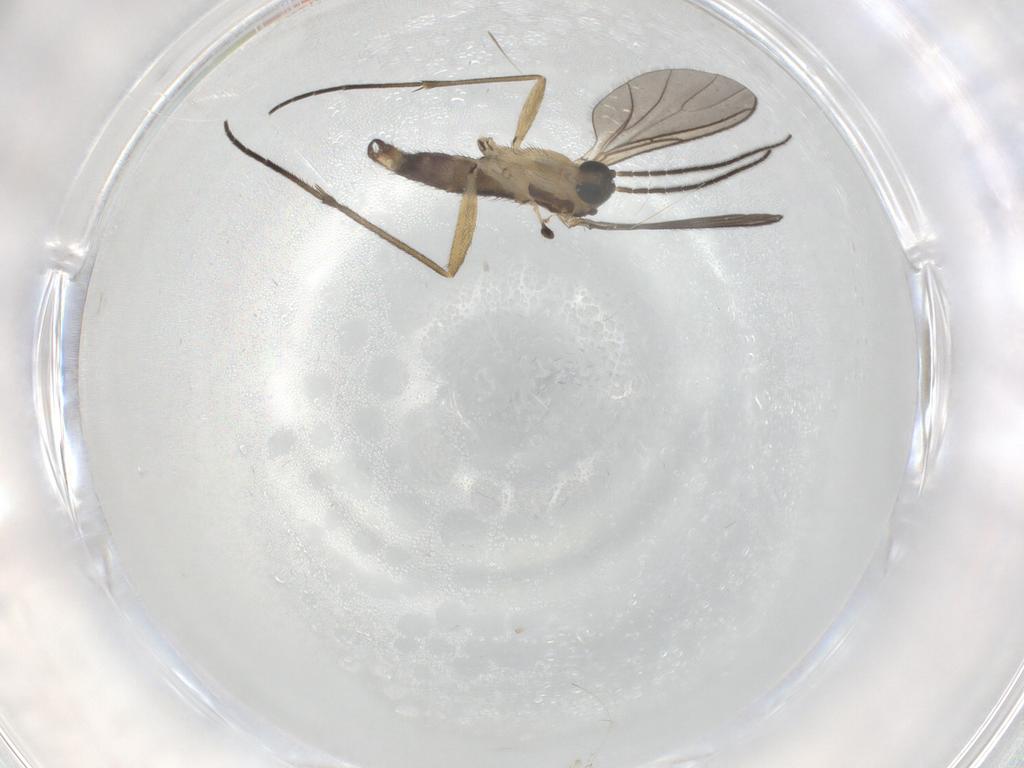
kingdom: Animalia
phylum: Arthropoda
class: Insecta
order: Diptera
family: Sciaridae
